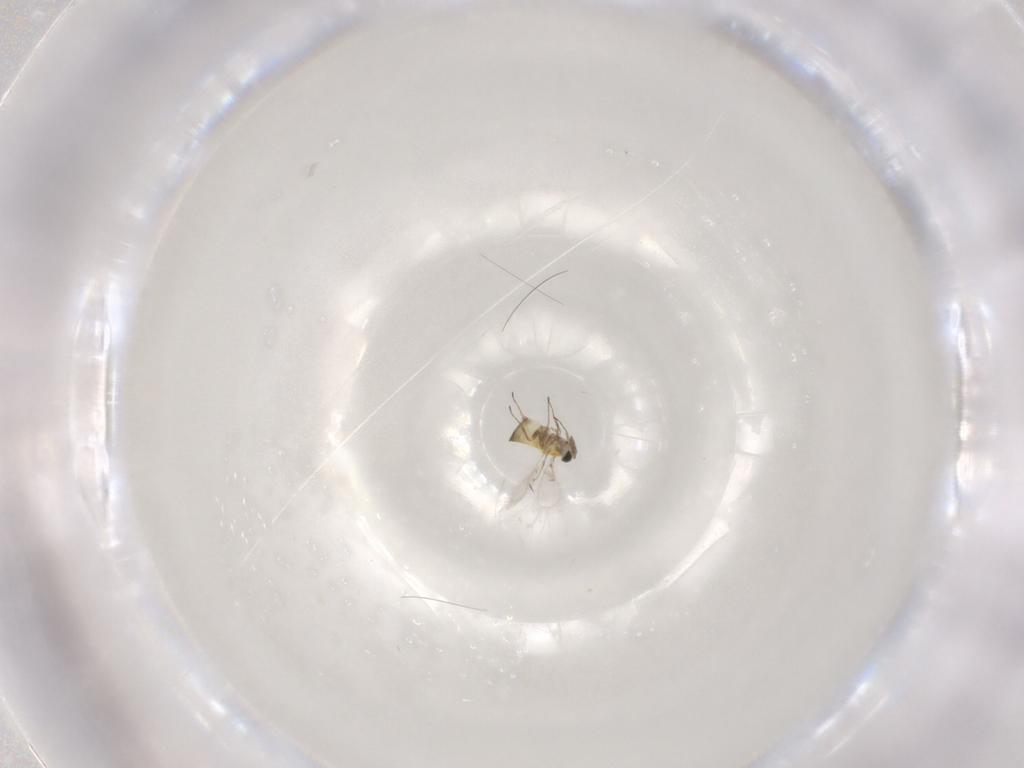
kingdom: Animalia
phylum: Arthropoda
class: Insecta
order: Hymenoptera
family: Trichogrammatidae
